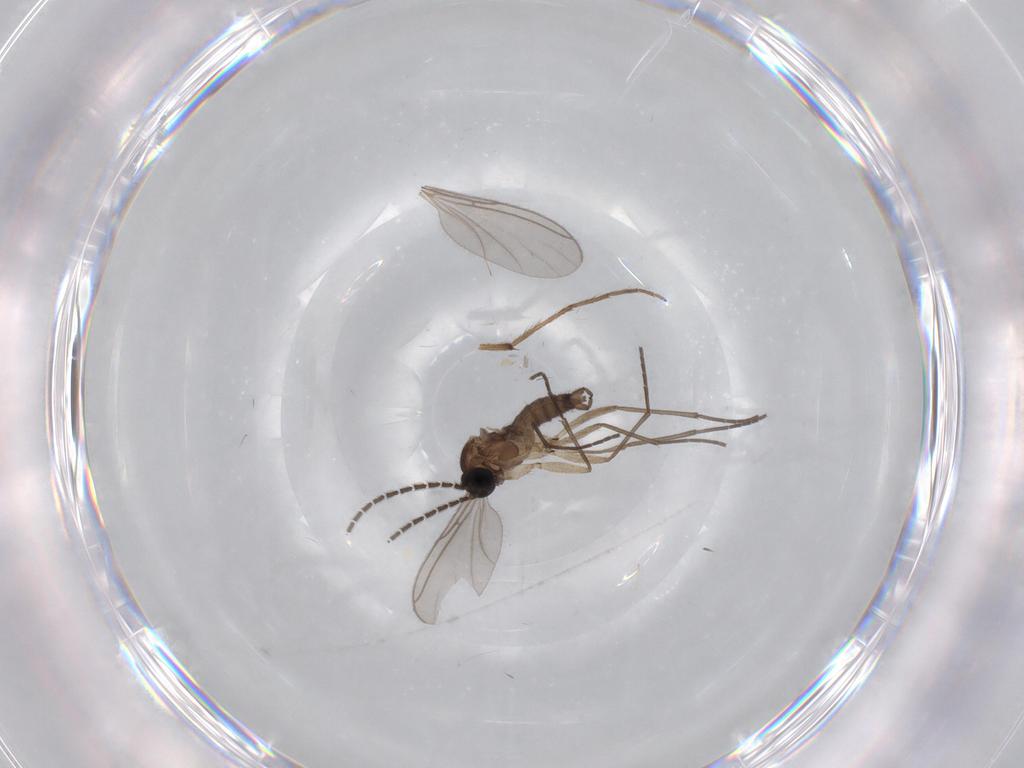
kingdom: Animalia
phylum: Arthropoda
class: Insecta
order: Diptera
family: Sciaridae
